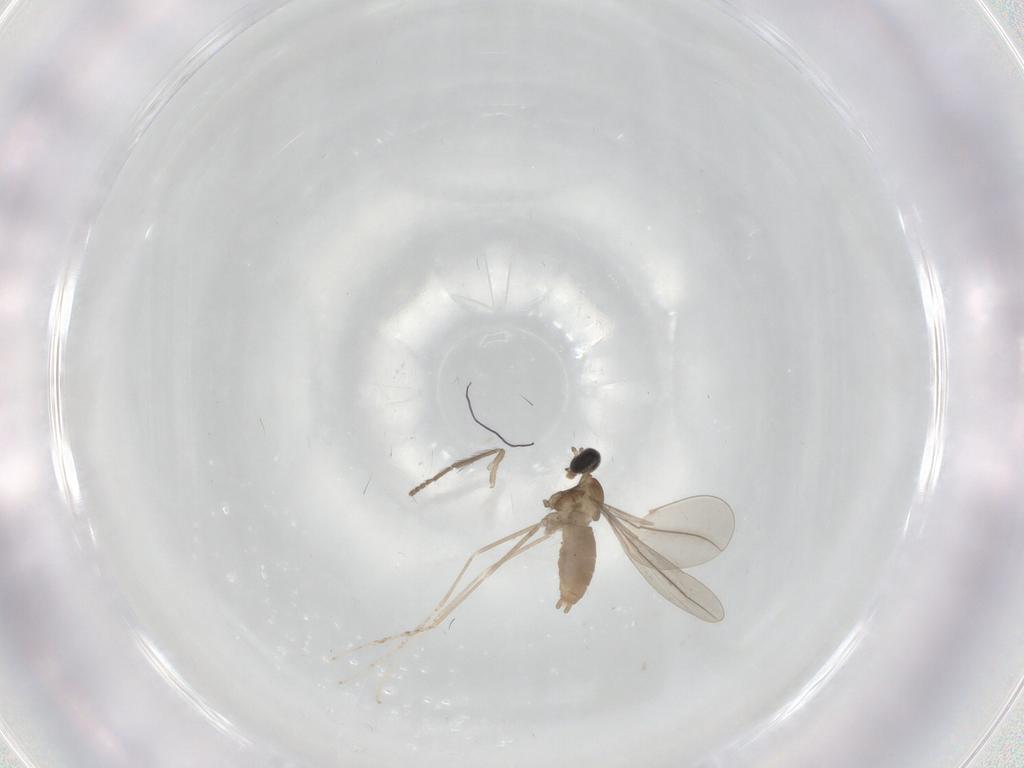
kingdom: Animalia
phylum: Arthropoda
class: Insecta
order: Diptera
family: Cecidomyiidae
